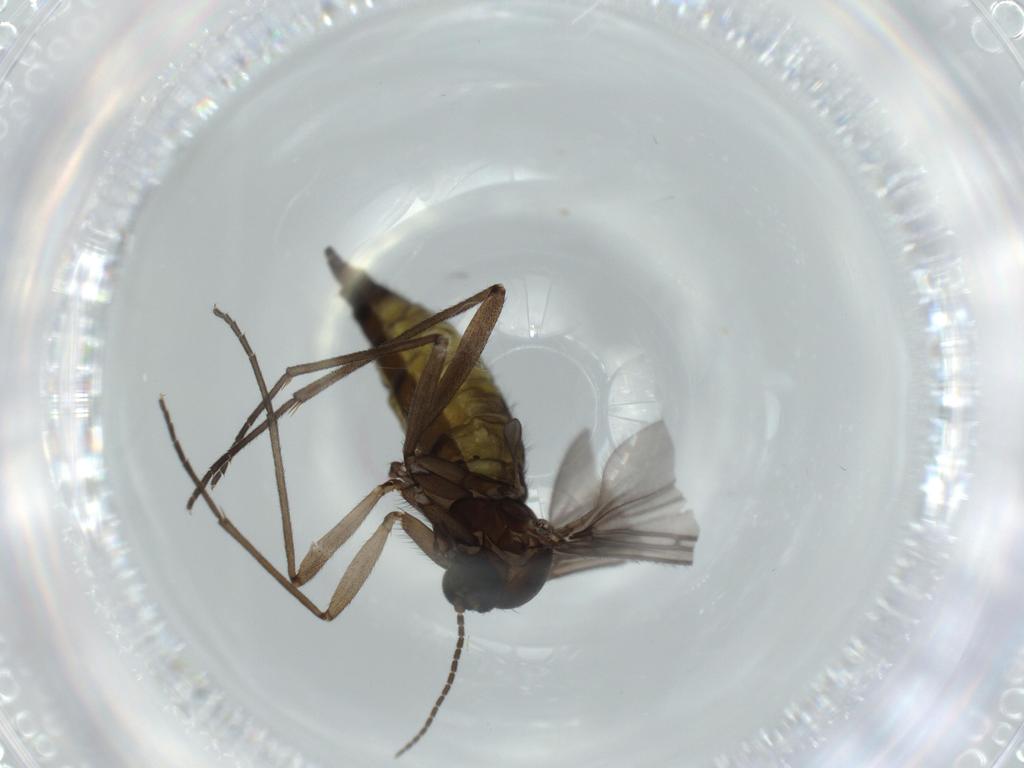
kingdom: Animalia
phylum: Arthropoda
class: Insecta
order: Diptera
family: Sciaridae
